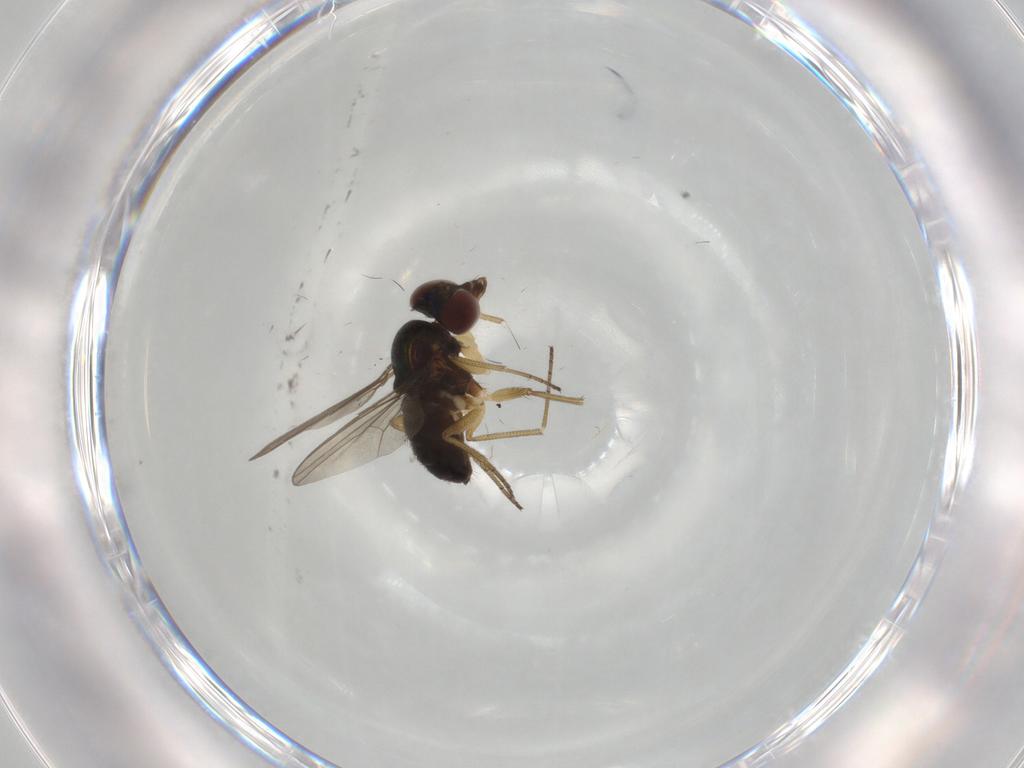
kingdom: Animalia
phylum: Arthropoda
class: Insecta
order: Diptera
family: Dolichopodidae
